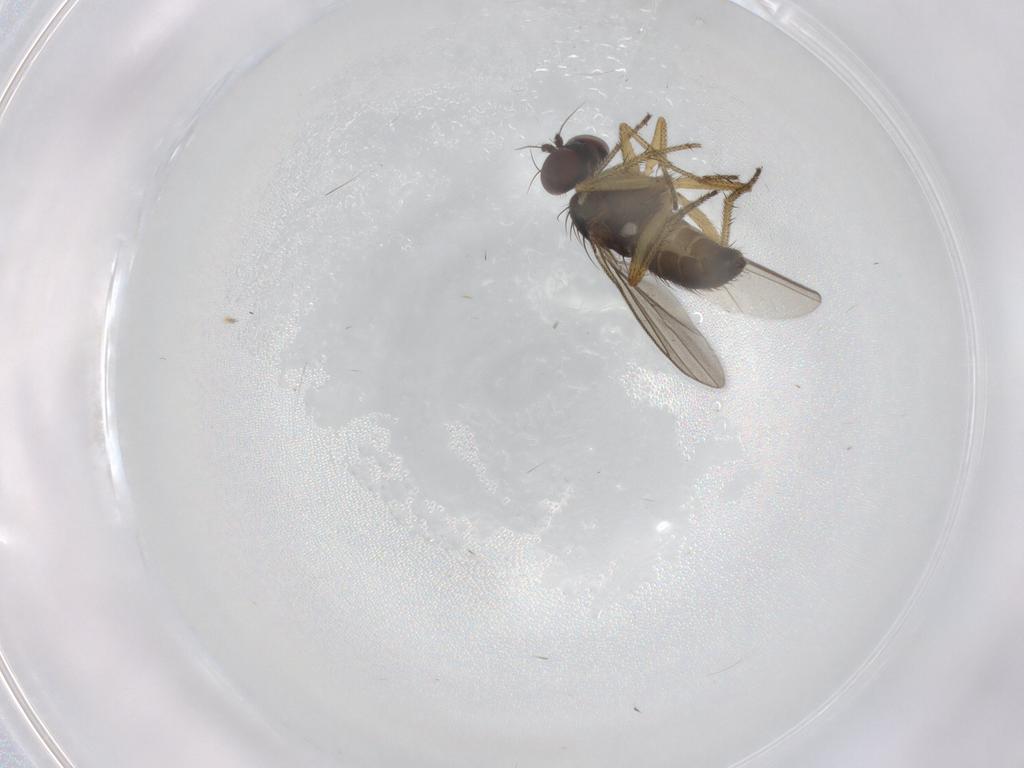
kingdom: Animalia
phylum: Arthropoda
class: Insecta
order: Diptera
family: Dolichopodidae
